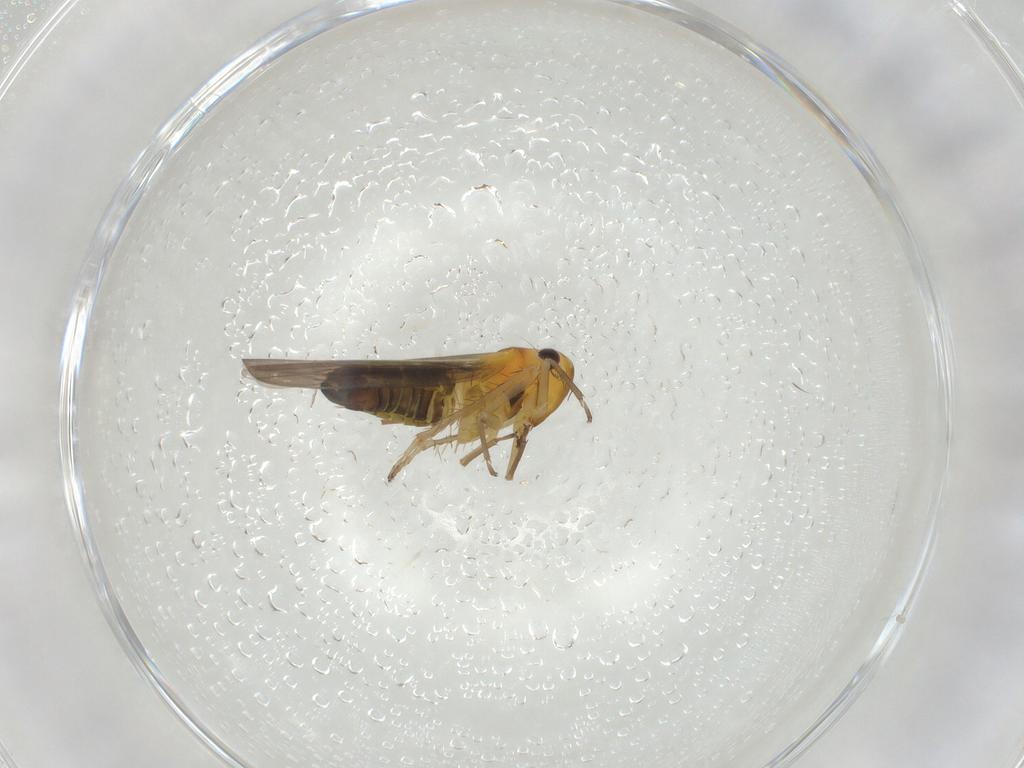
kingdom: Animalia
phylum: Arthropoda
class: Insecta
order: Hemiptera
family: Cicadellidae
